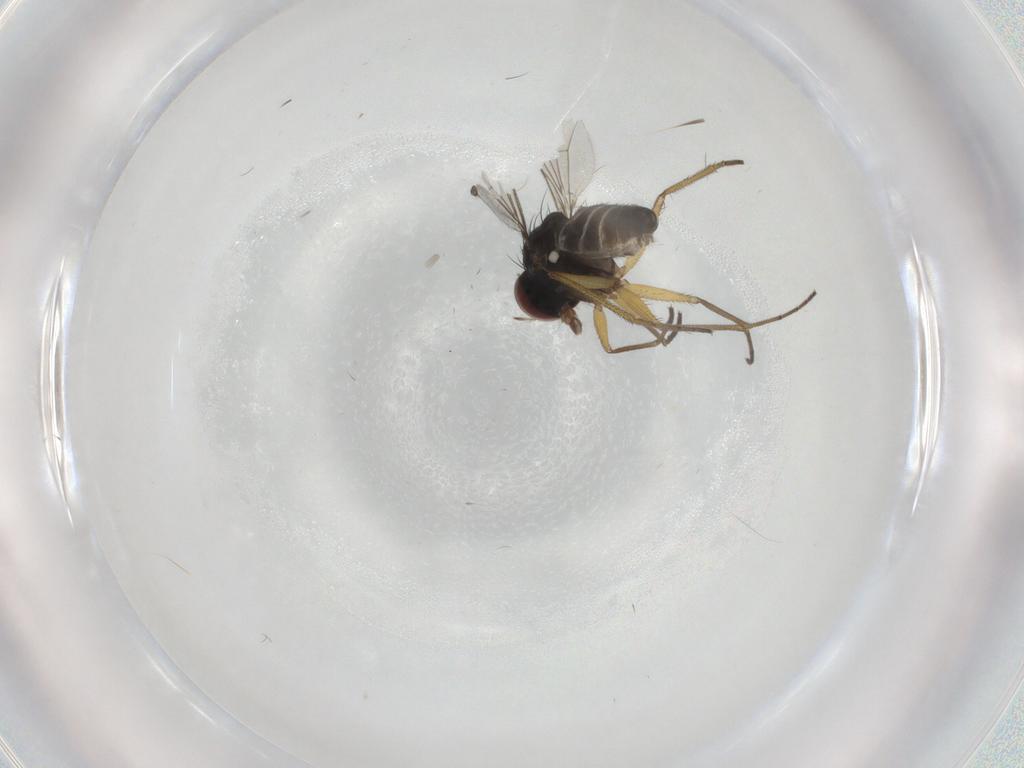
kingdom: Animalia
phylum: Arthropoda
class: Insecta
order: Diptera
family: Dolichopodidae
